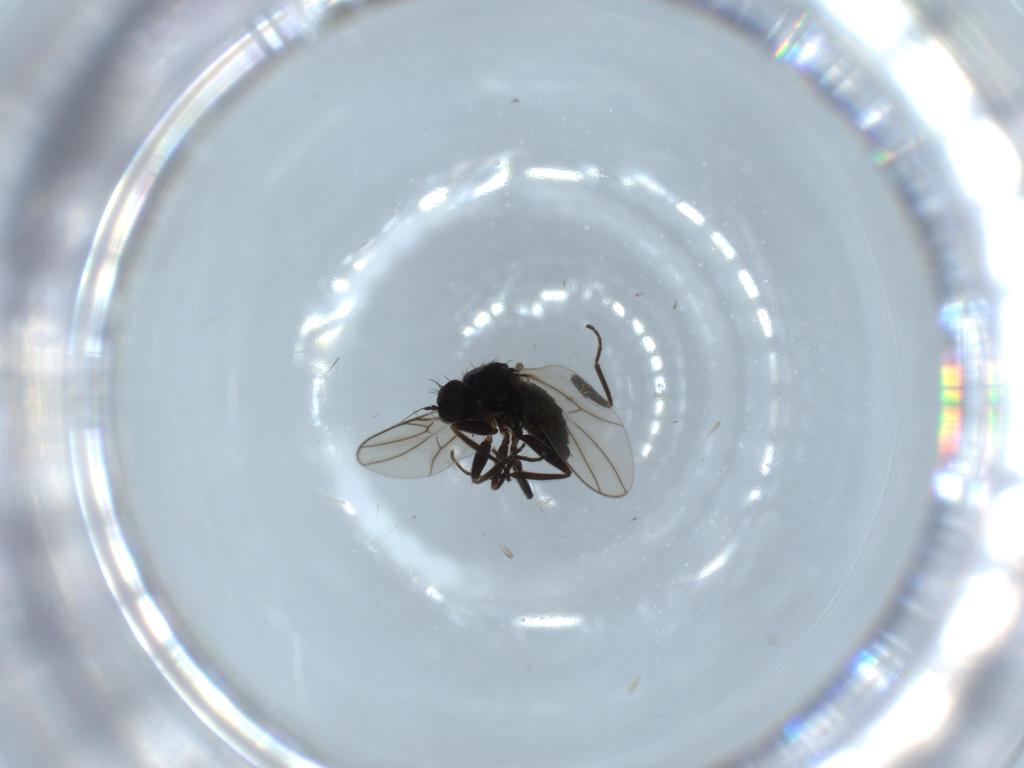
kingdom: Animalia
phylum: Arthropoda
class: Insecta
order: Diptera
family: Hybotidae
